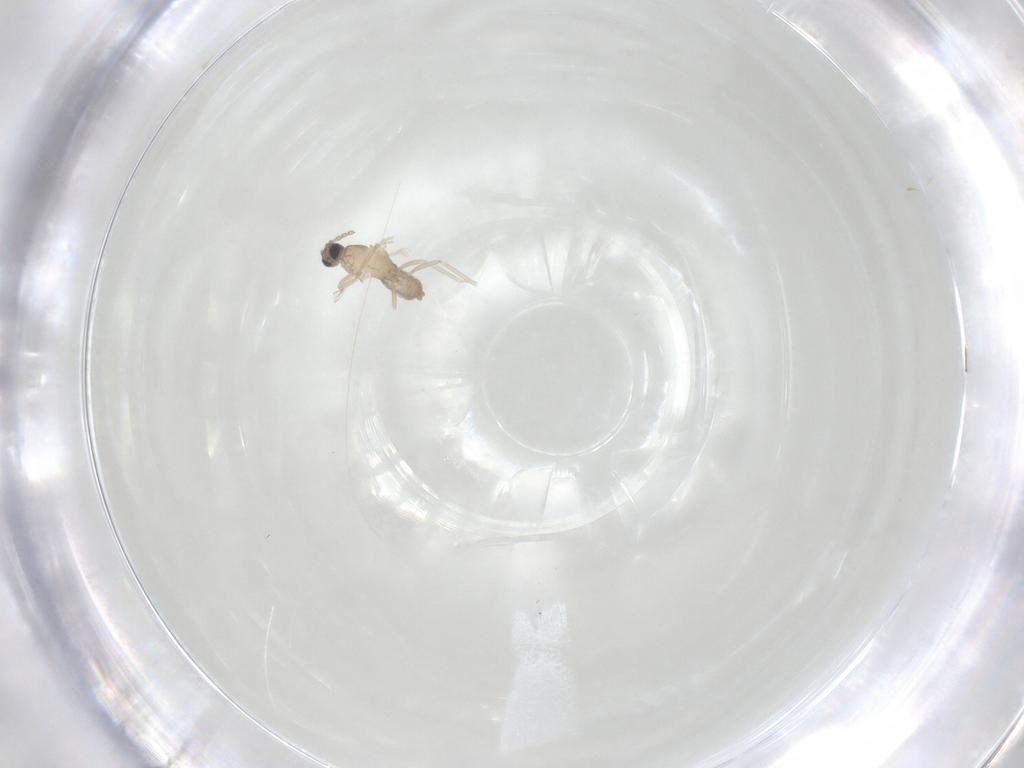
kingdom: Animalia
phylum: Arthropoda
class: Insecta
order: Diptera
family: Cecidomyiidae
